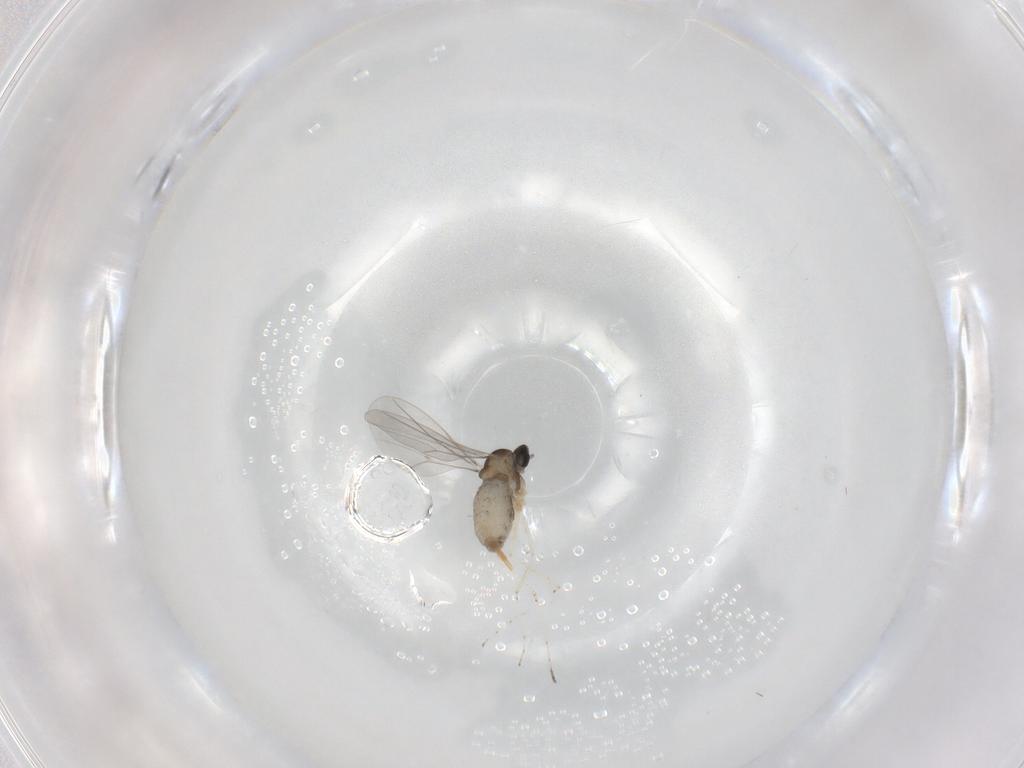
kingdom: Animalia
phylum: Arthropoda
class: Insecta
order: Diptera
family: Cecidomyiidae
